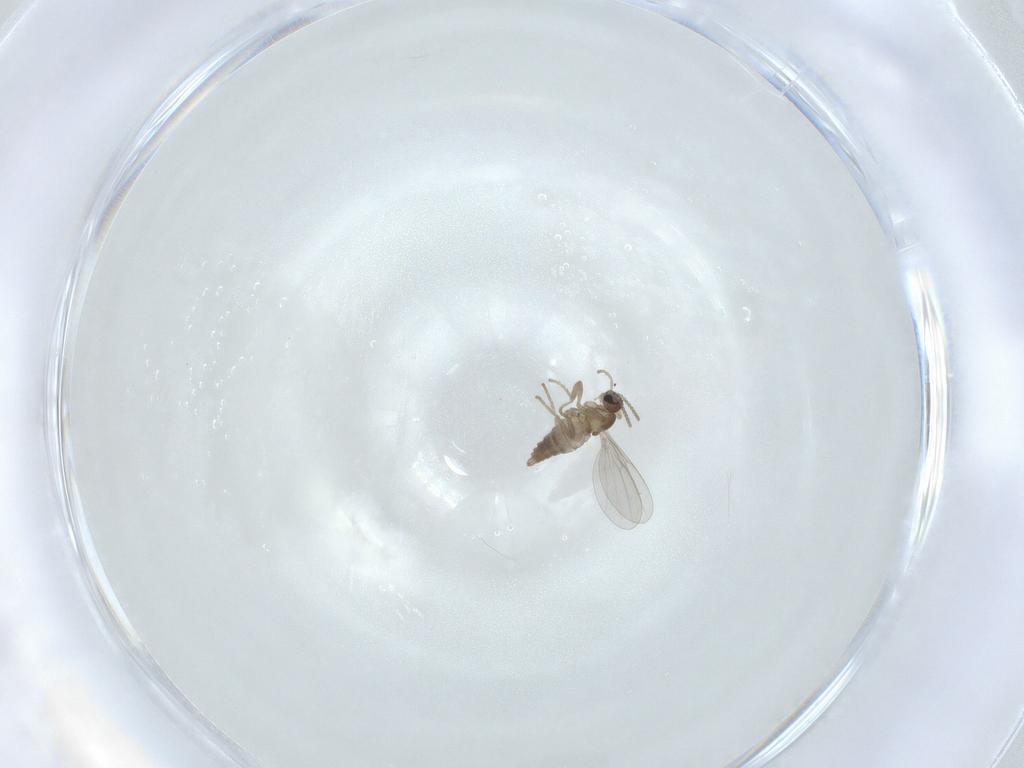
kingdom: Animalia
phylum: Arthropoda
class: Insecta
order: Diptera
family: Cecidomyiidae
